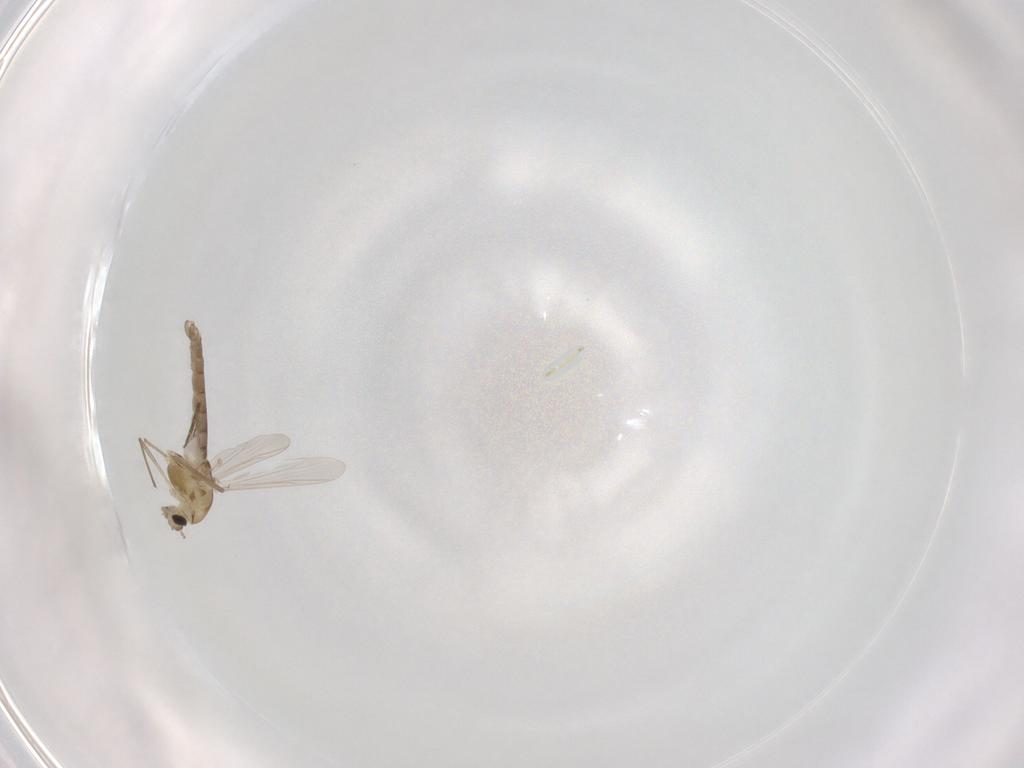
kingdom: Animalia
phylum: Arthropoda
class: Insecta
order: Diptera
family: Chironomidae
